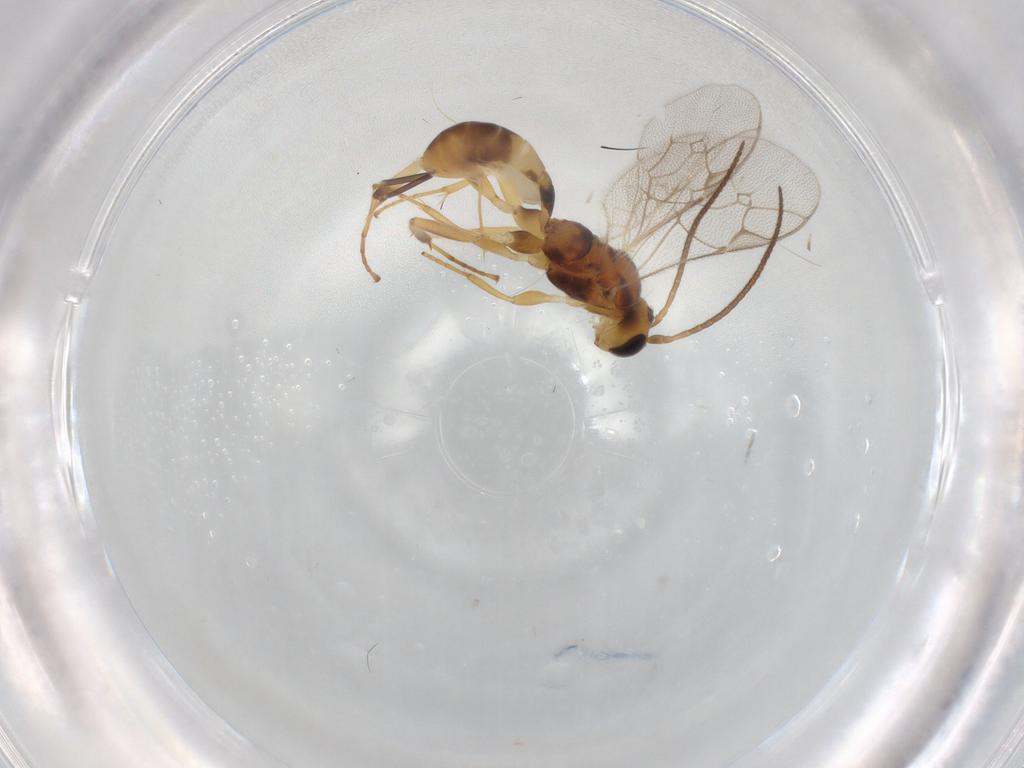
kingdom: Animalia
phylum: Arthropoda
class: Insecta
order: Hymenoptera
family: Ichneumonidae
